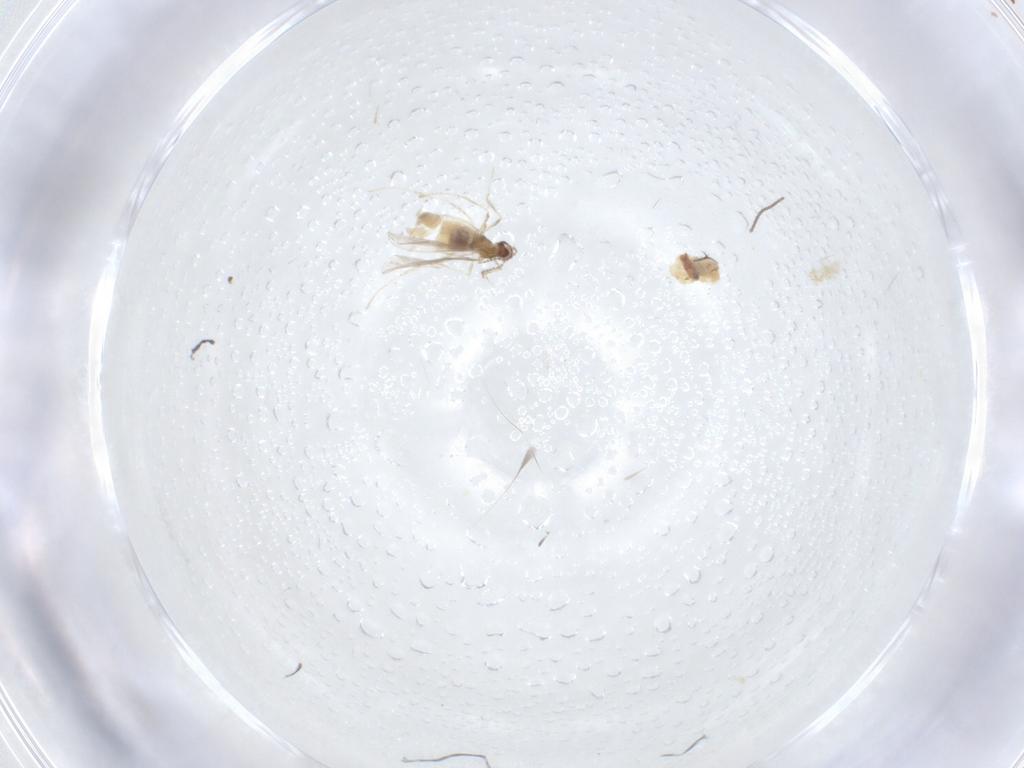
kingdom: Animalia
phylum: Arthropoda
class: Insecta
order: Diptera
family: Cecidomyiidae
